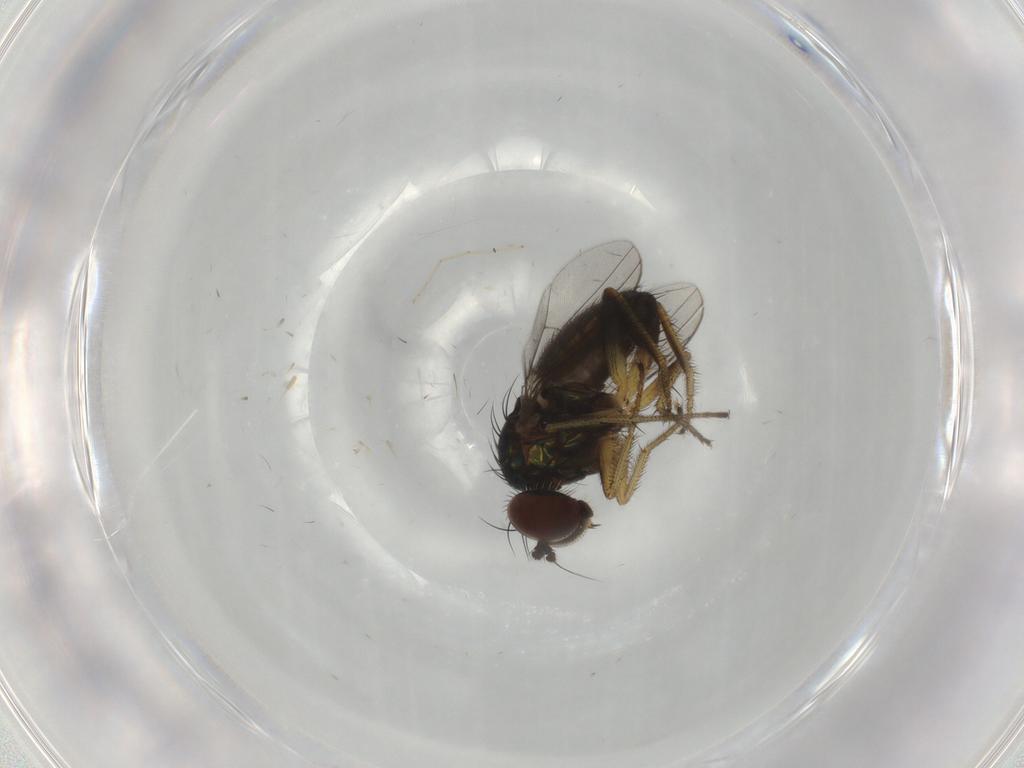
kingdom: Animalia
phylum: Arthropoda
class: Insecta
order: Diptera
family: Dolichopodidae
